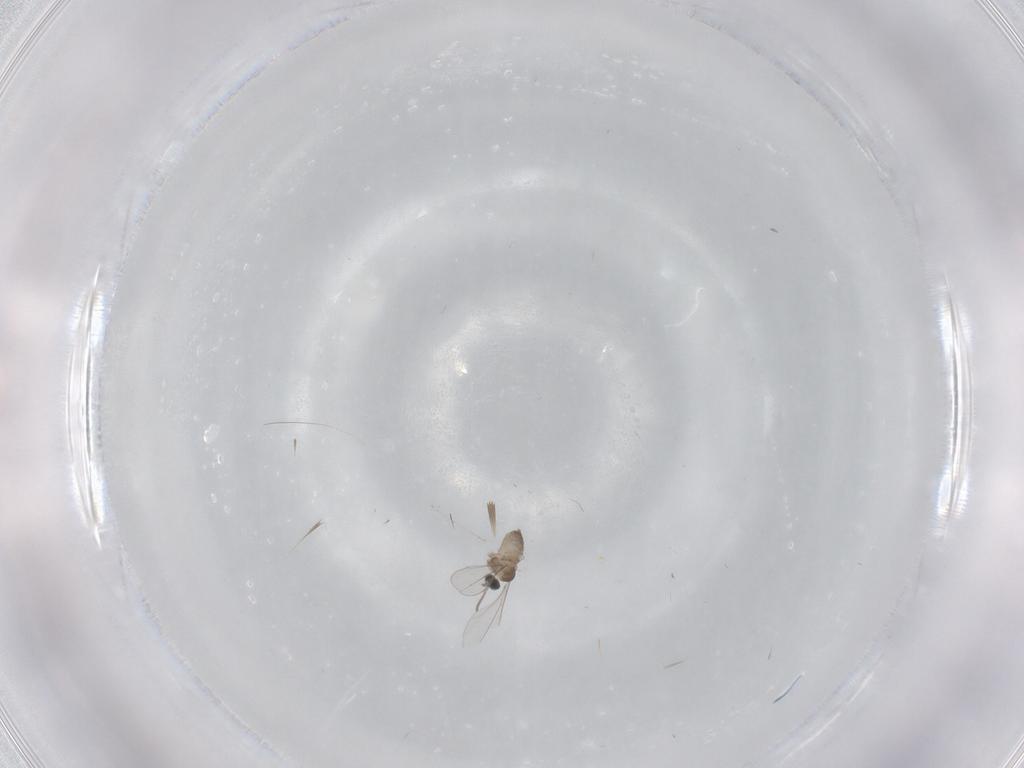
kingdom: Animalia
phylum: Arthropoda
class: Insecta
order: Diptera
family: Cecidomyiidae
